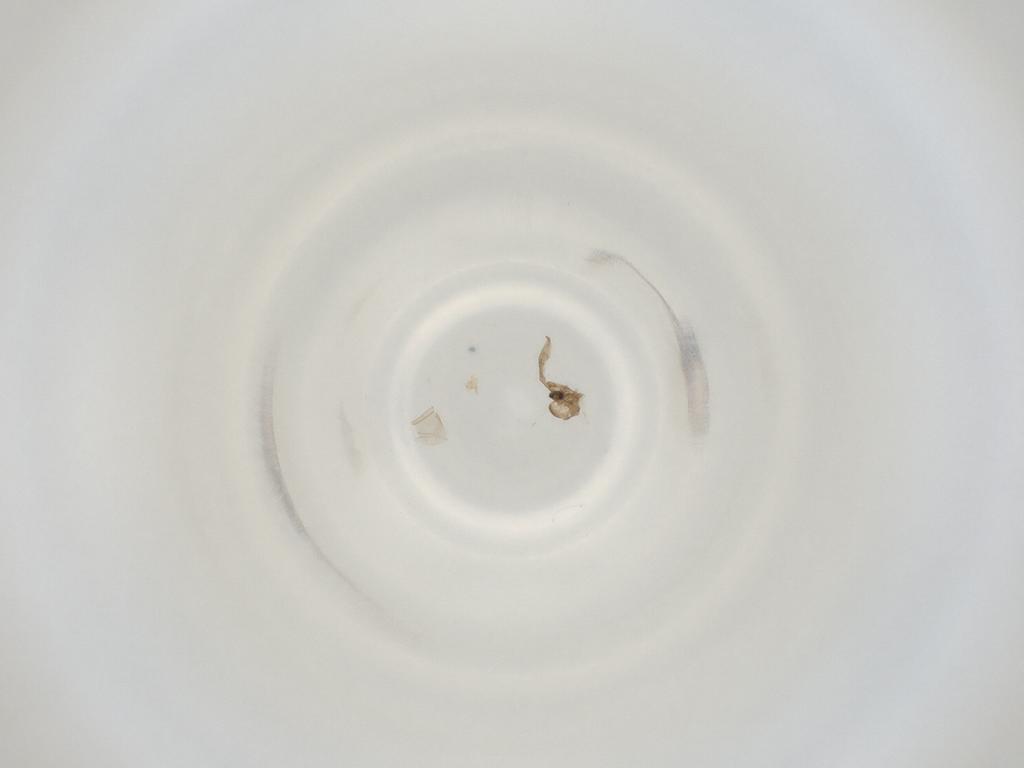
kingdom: Animalia
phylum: Arthropoda
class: Insecta
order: Diptera
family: Cecidomyiidae
